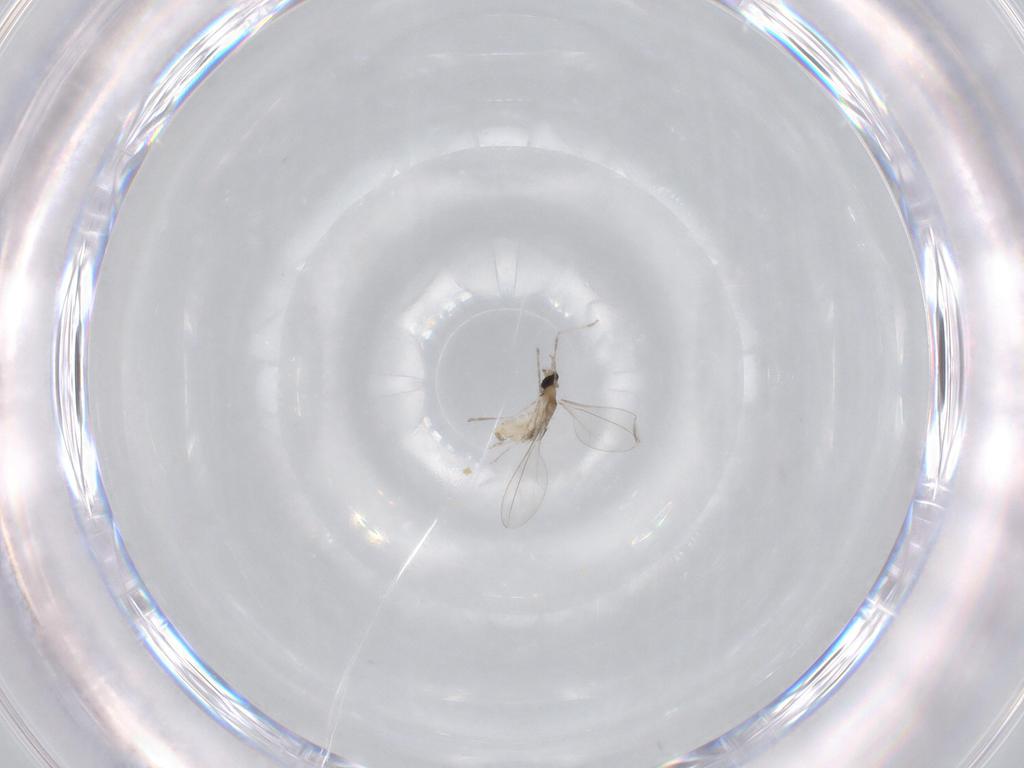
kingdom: Animalia
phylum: Arthropoda
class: Insecta
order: Diptera
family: Cecidomyiidae
